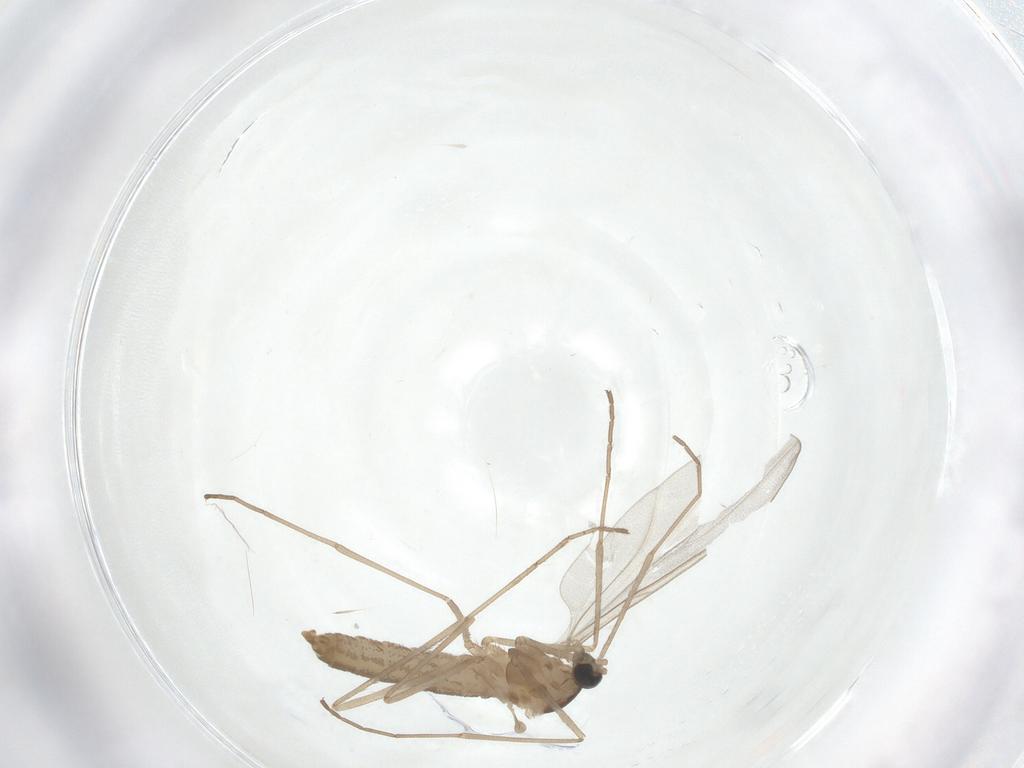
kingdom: Animalia
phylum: Arthropoda
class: Insecta
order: Diptera
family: Cecidomyiidae
